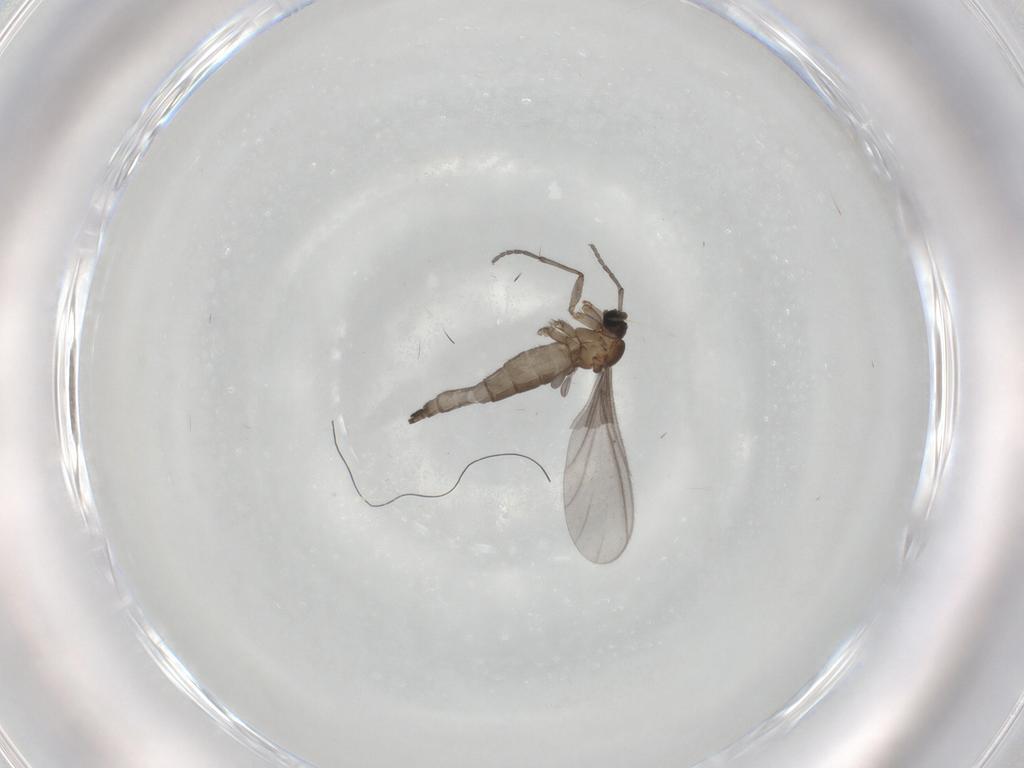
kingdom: Animalia
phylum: Arthropoda
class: Insecta
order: Diptera
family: Sciaridae
